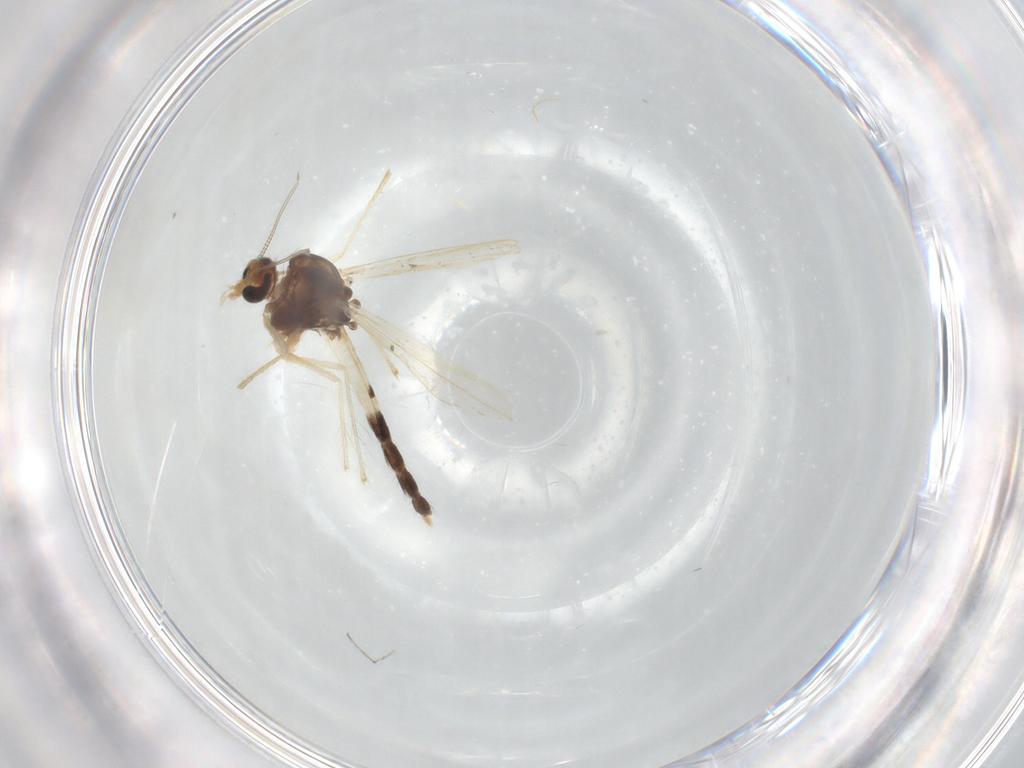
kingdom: Animalia
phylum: Arthropoda
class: Insecta
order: Diptera
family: Chironomidae
